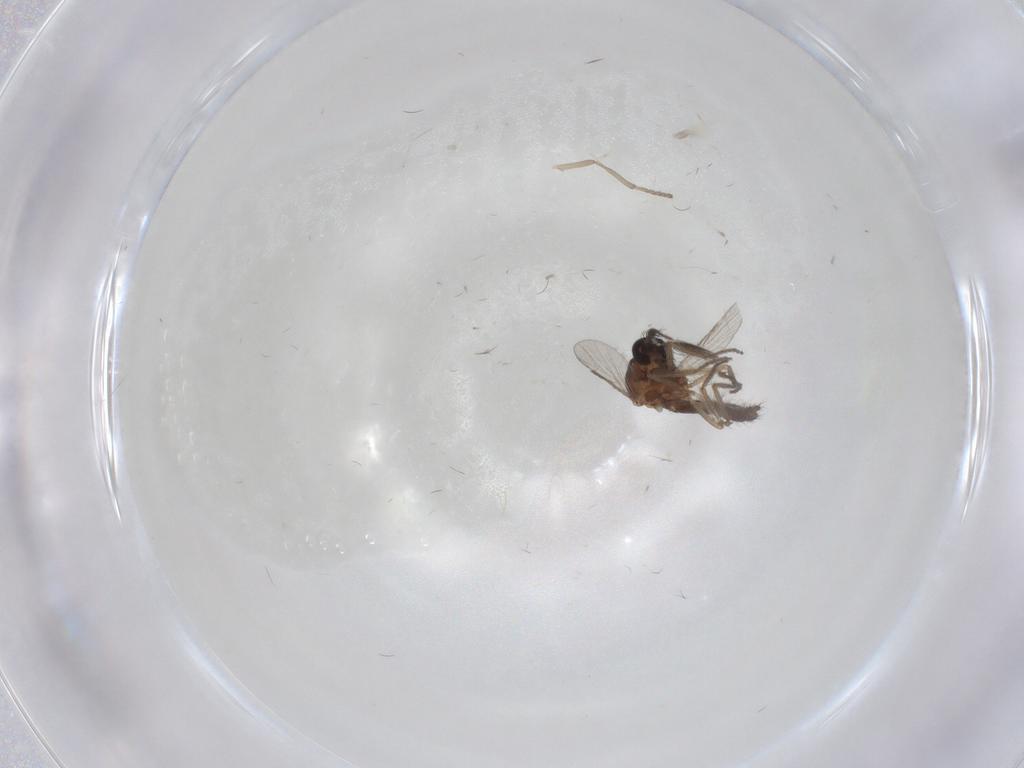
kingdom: Animalia
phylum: Arthropoda
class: Insecta
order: Diptera
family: Psychodidae
